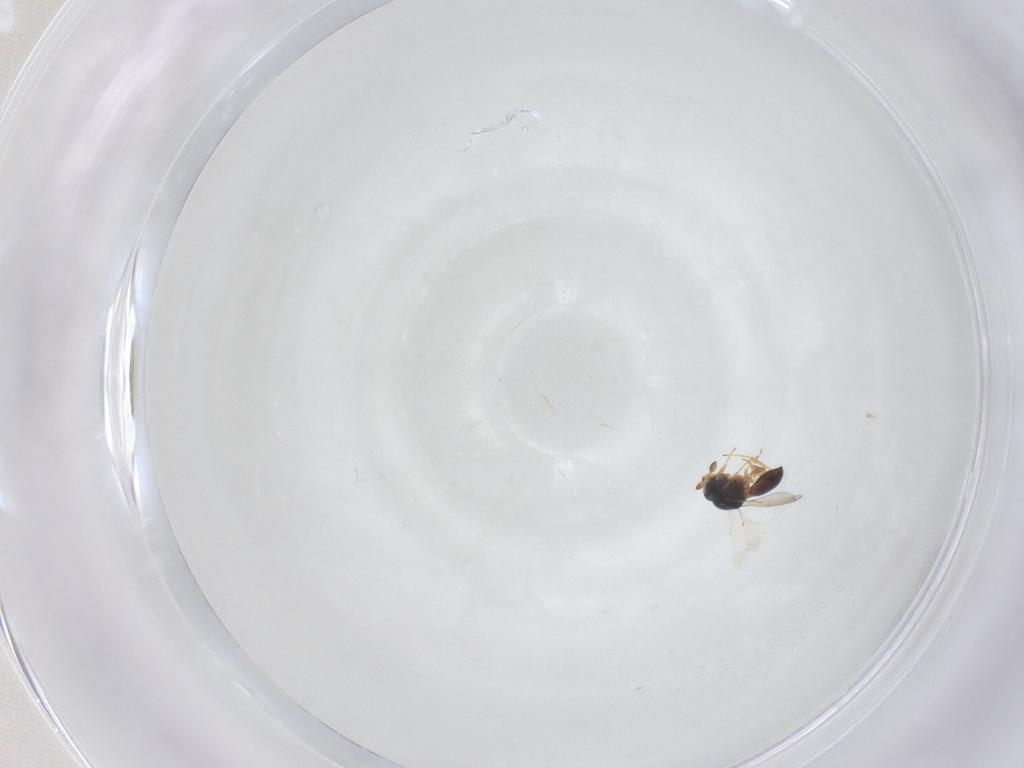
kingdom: Animalia
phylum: Arthropoda
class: Insecta
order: Hymenoptera
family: Scelionidae
